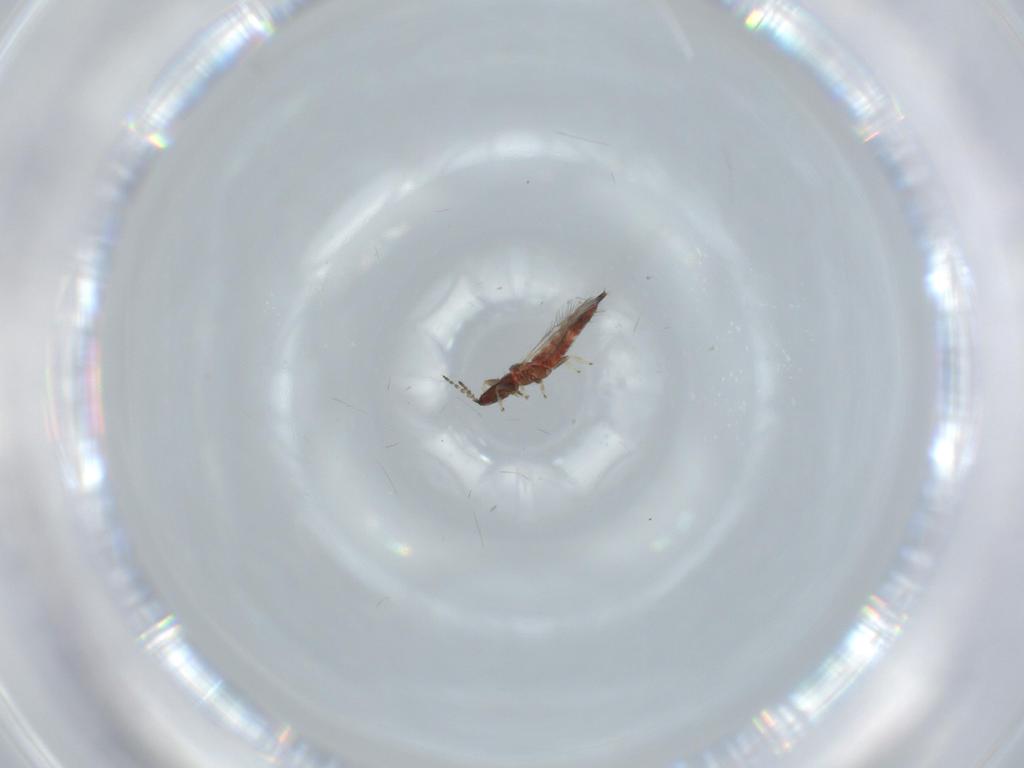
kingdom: Animalia
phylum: Arthropoda
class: Insecta
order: Thysanoptera
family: Phlaeothripidae
